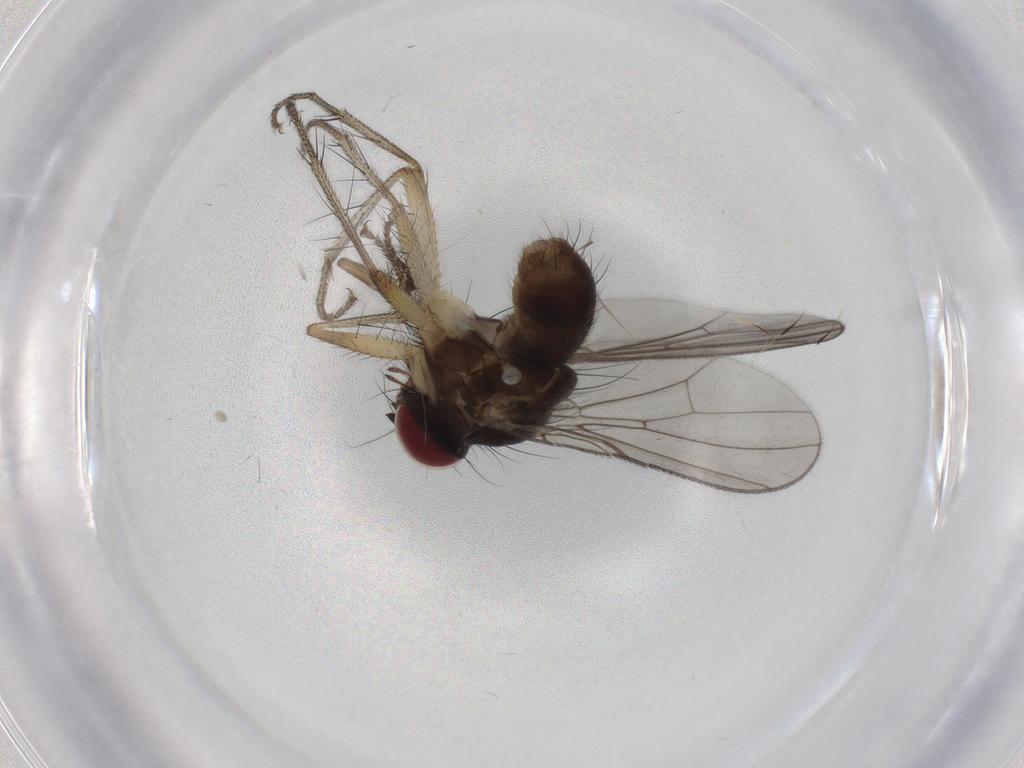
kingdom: Animalia
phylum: Arthropoda
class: Insecta
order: Diptera
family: Anthomyiidae
